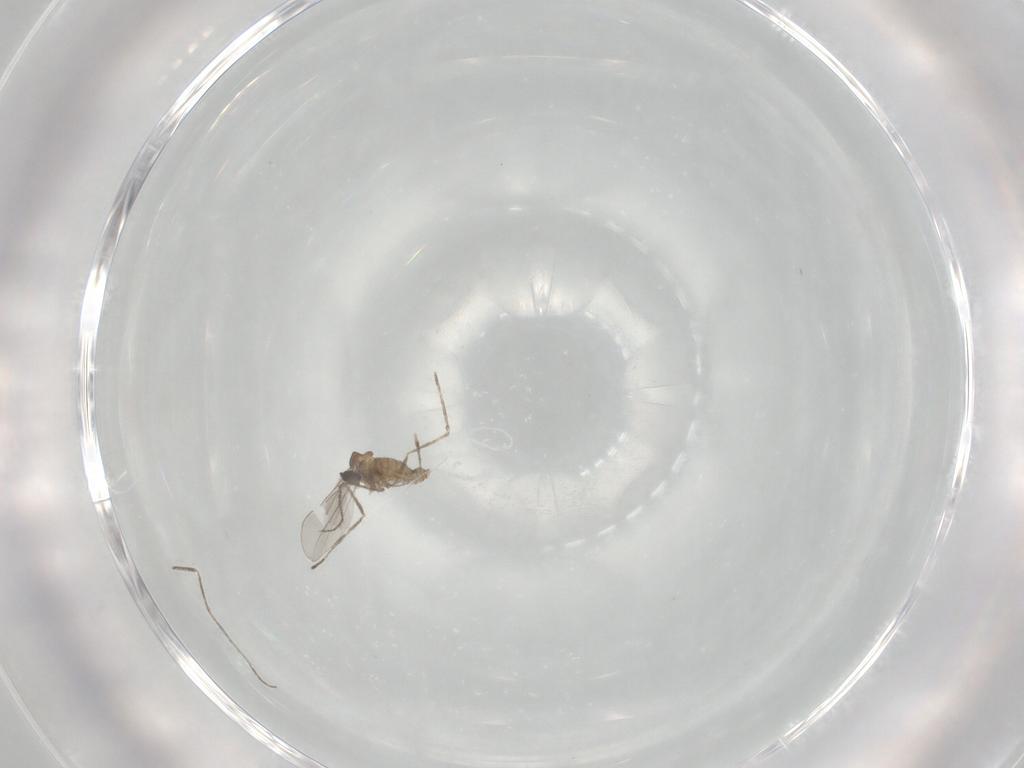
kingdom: Animalia
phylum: Arthropoda
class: Insecta
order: Diptera
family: Cecidomyiidae
